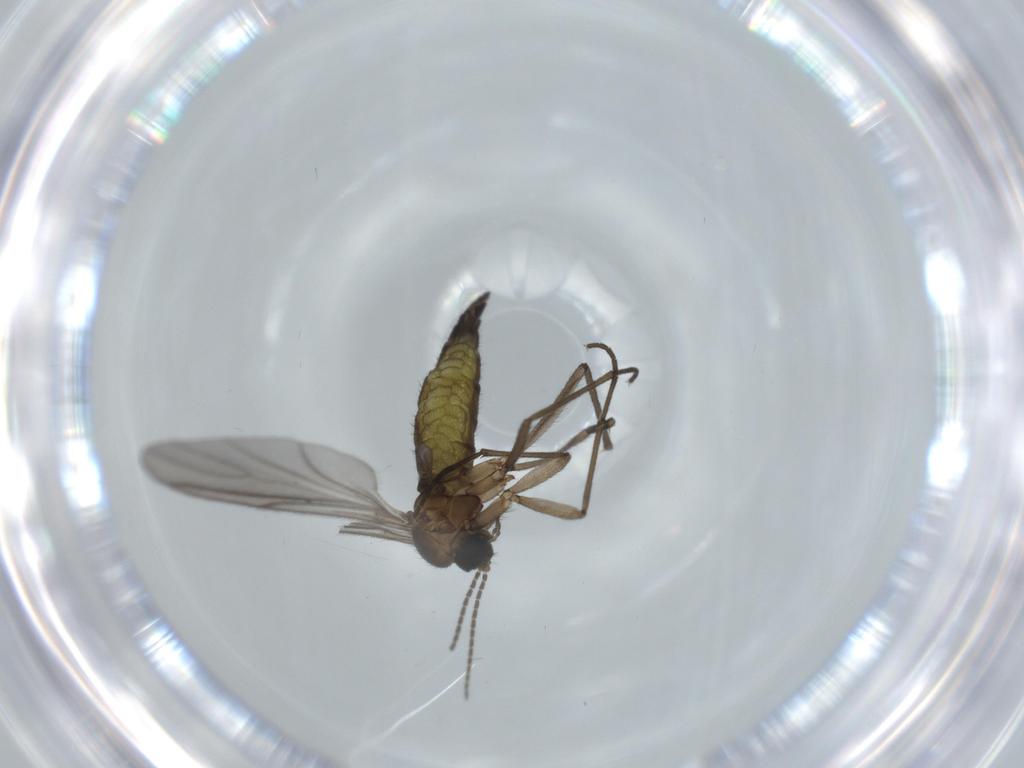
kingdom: Animalia
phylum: Arthropoda
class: Insecta
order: Diptera
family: Sciaridae
